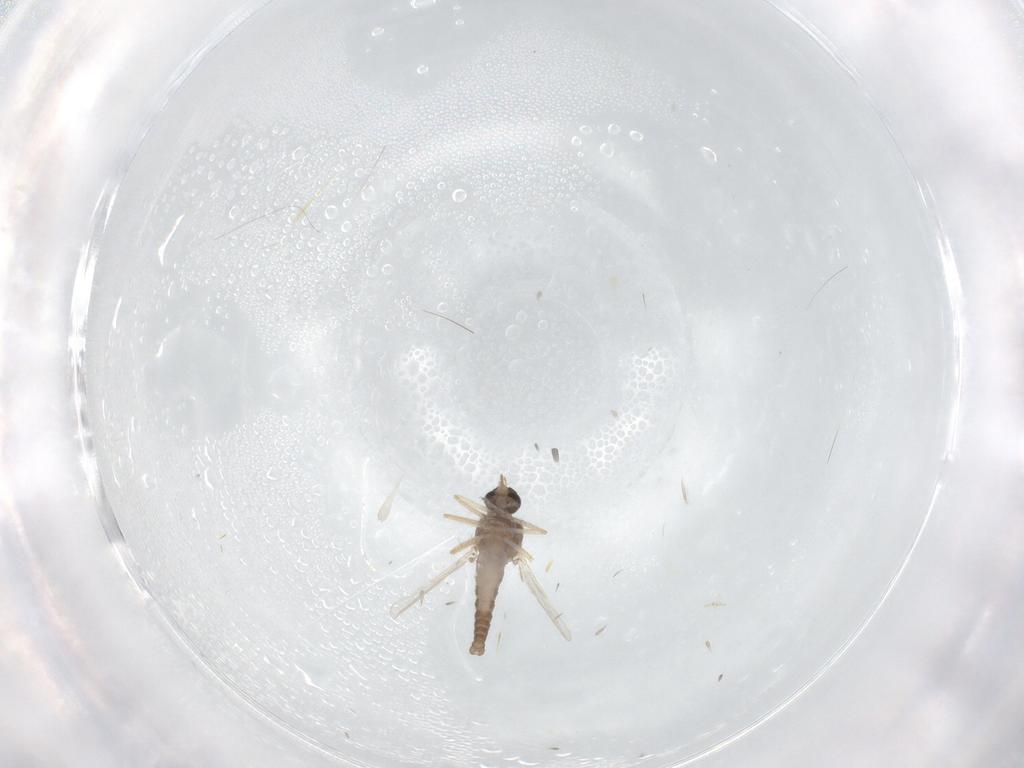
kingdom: Animalia
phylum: Arthropoda
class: Insecta
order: Diptera
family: Ceratopogonidae
